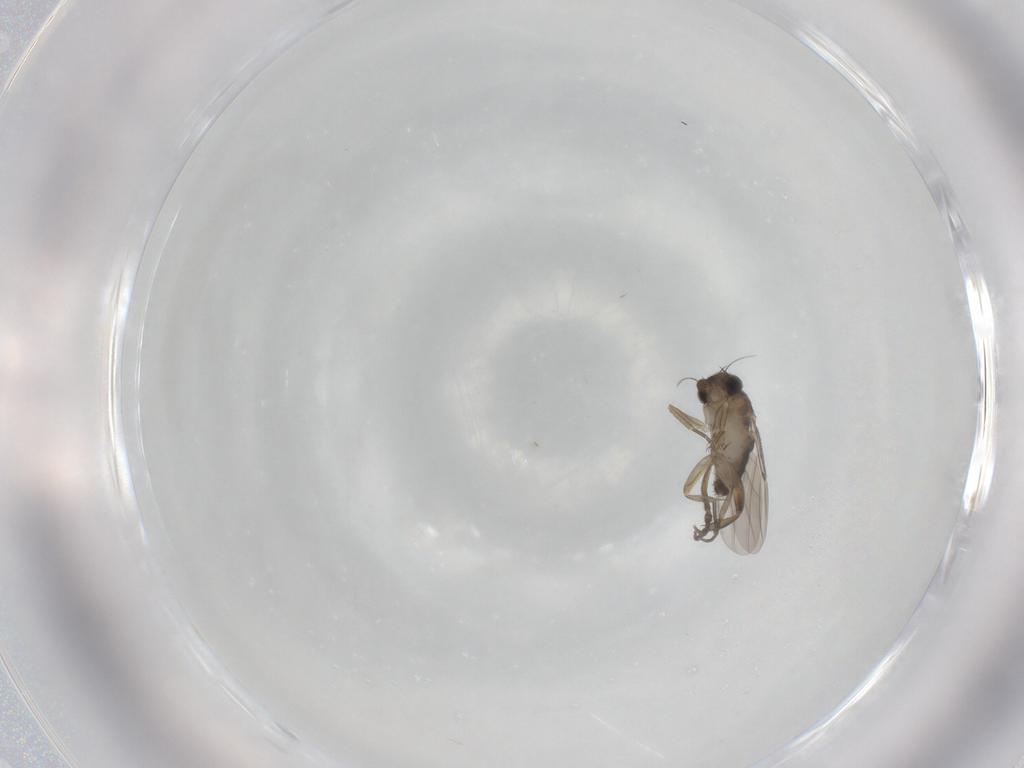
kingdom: Animalia
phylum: Arthropoda
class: Insecta
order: Diptera
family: Phoridae
